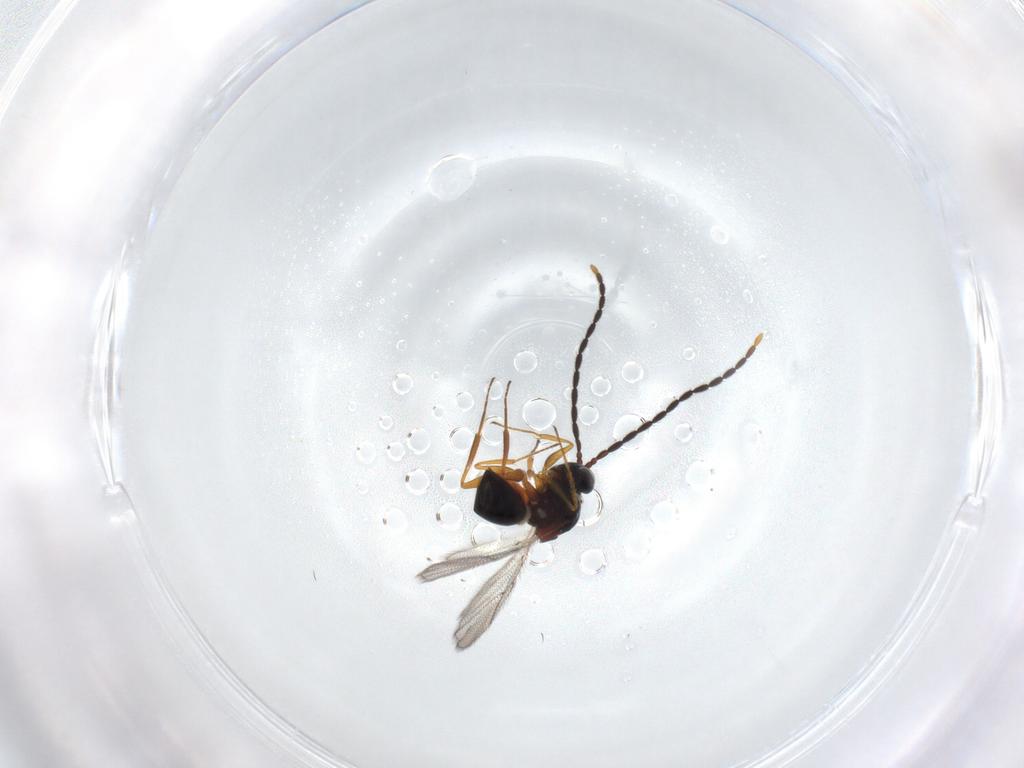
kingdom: Animalia
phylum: Arthropoda
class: Insecta
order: Hymenoptera
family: Figitidae
